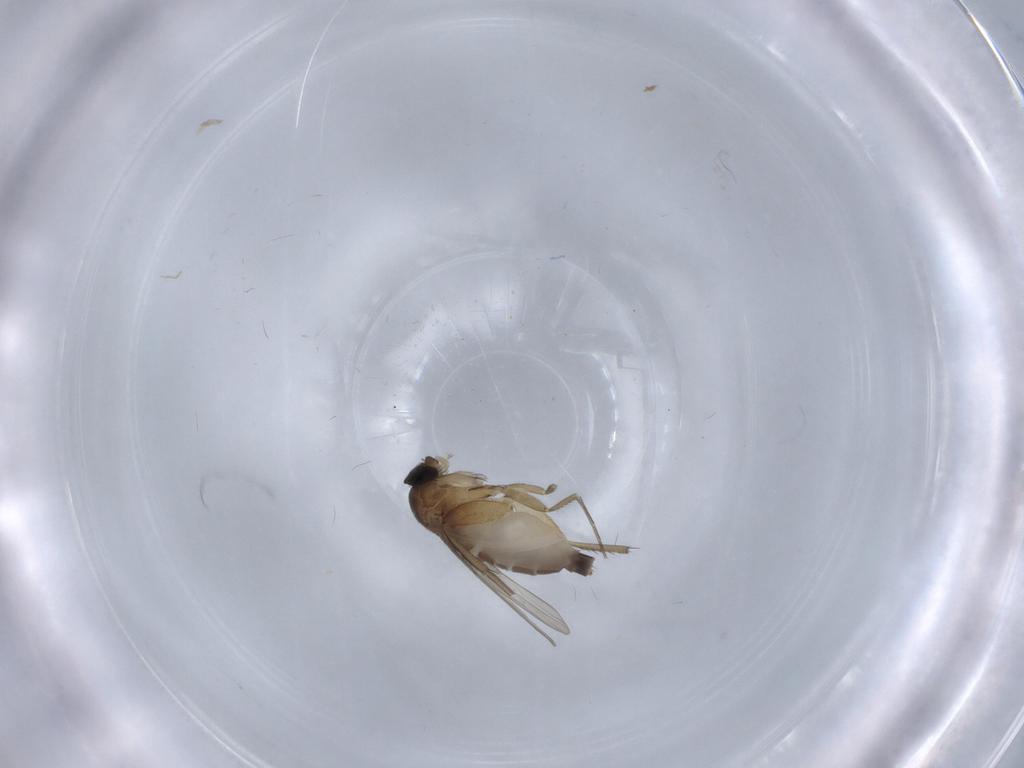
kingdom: Animalia
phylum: Arthropoda
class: Insecta
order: Diptera
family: Phoridae
